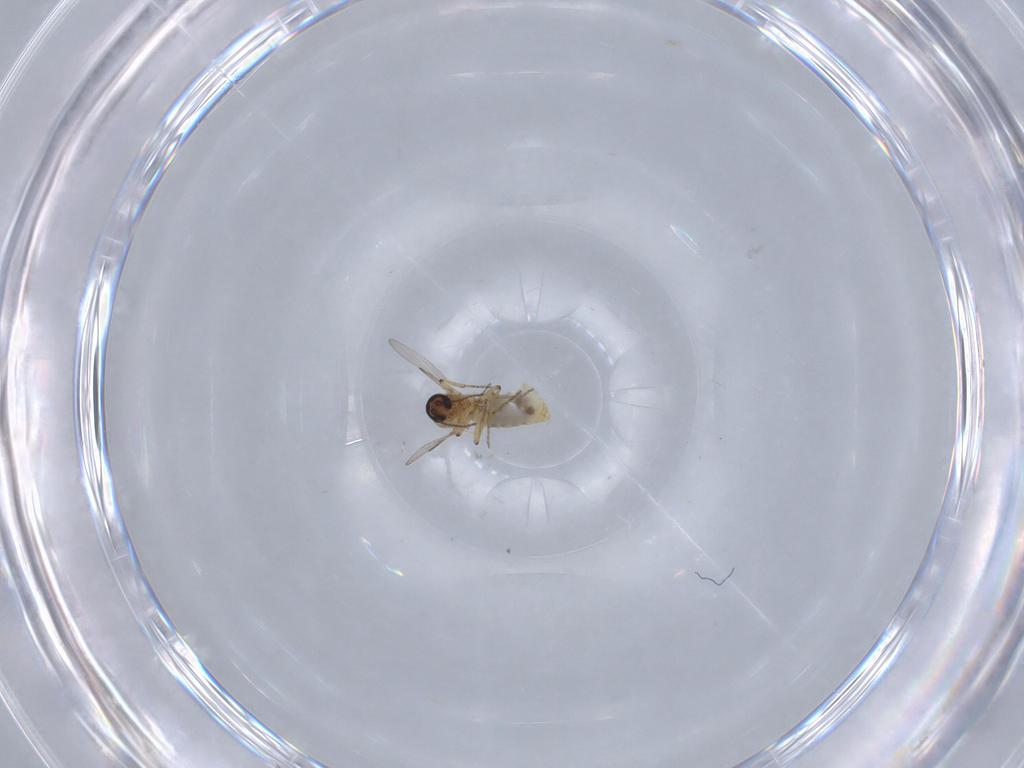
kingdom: Animalia
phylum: Arthropoda
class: Insecta
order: Diptera
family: Ceratopogonidae
